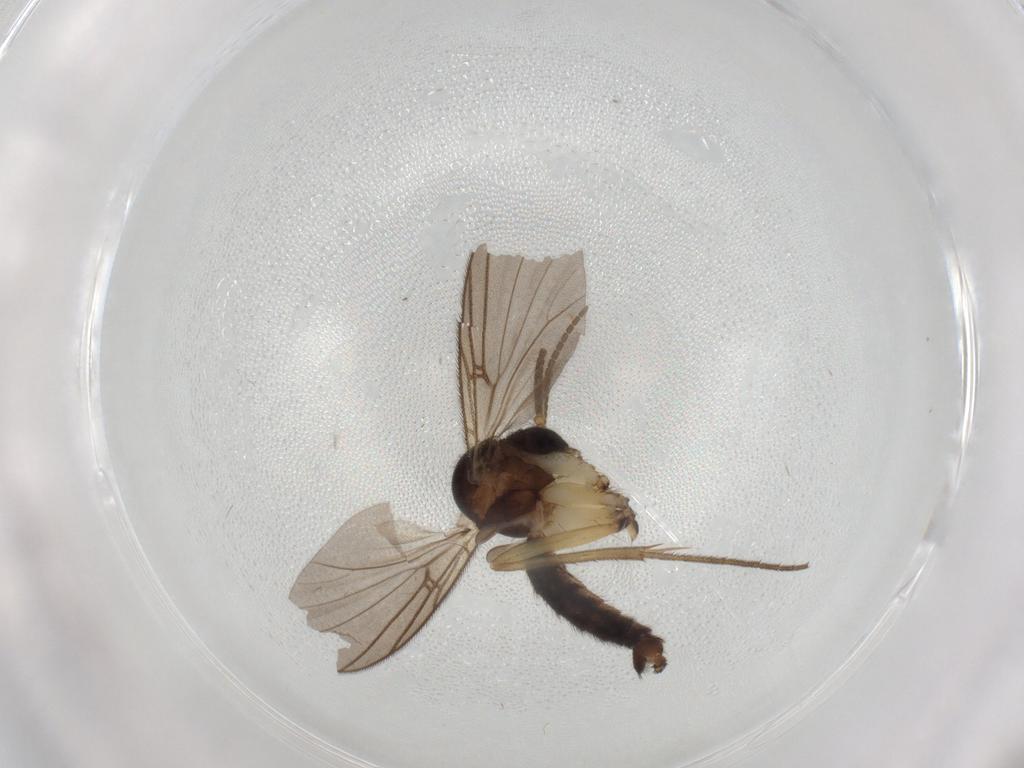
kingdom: Animalia
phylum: Arthropoda
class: Insecta
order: Diptera
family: Mycetophilidae
